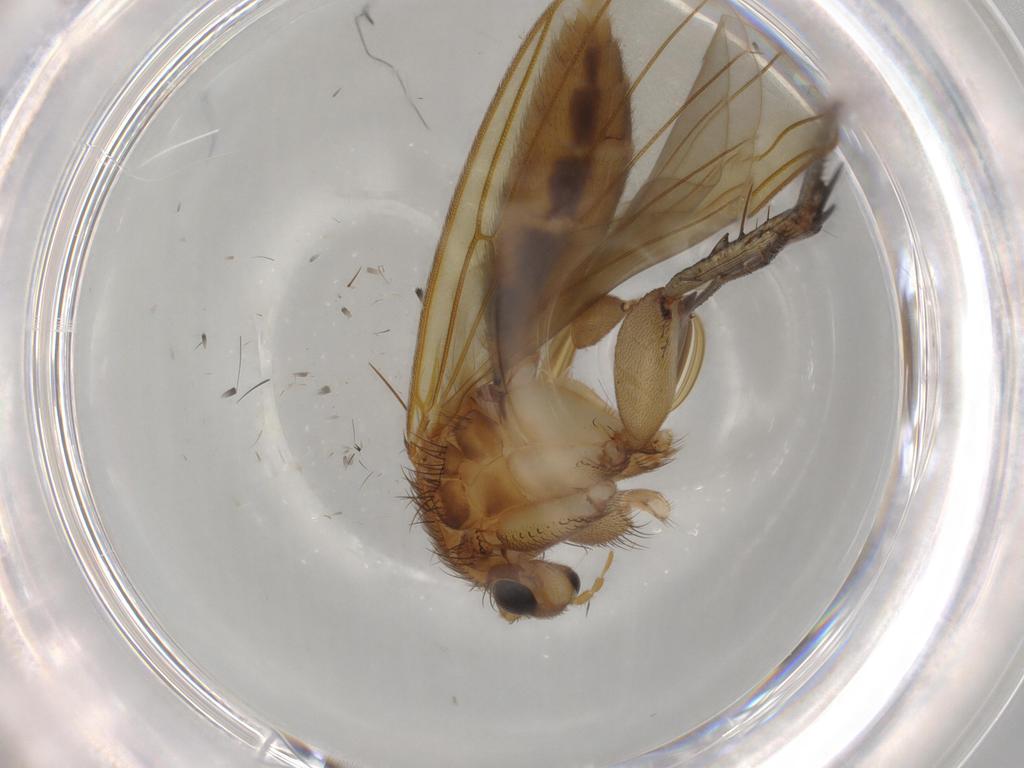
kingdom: Animalia
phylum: Arthropoda
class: Insecta
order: Diptera
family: Mycetophilidae
